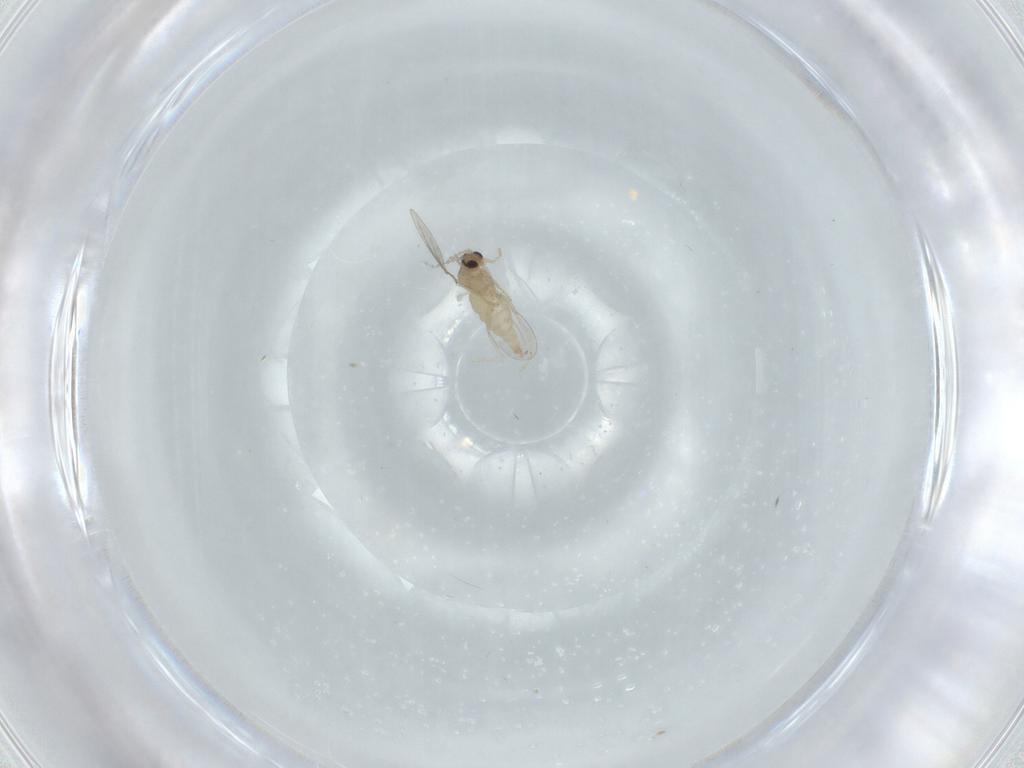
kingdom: Animalia
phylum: Arthropoda
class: Insecta
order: Diptera
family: Cecidomyiidae
